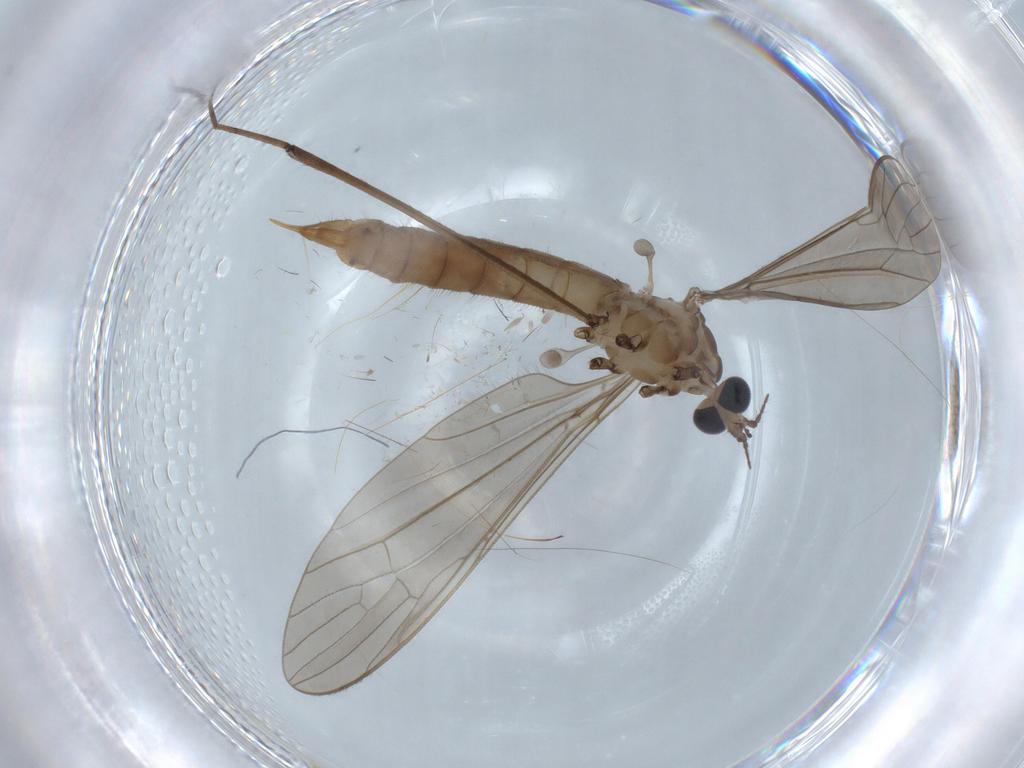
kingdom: Animalia
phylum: Arthropoda
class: Insecta
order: Diptera
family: Limoniidae
